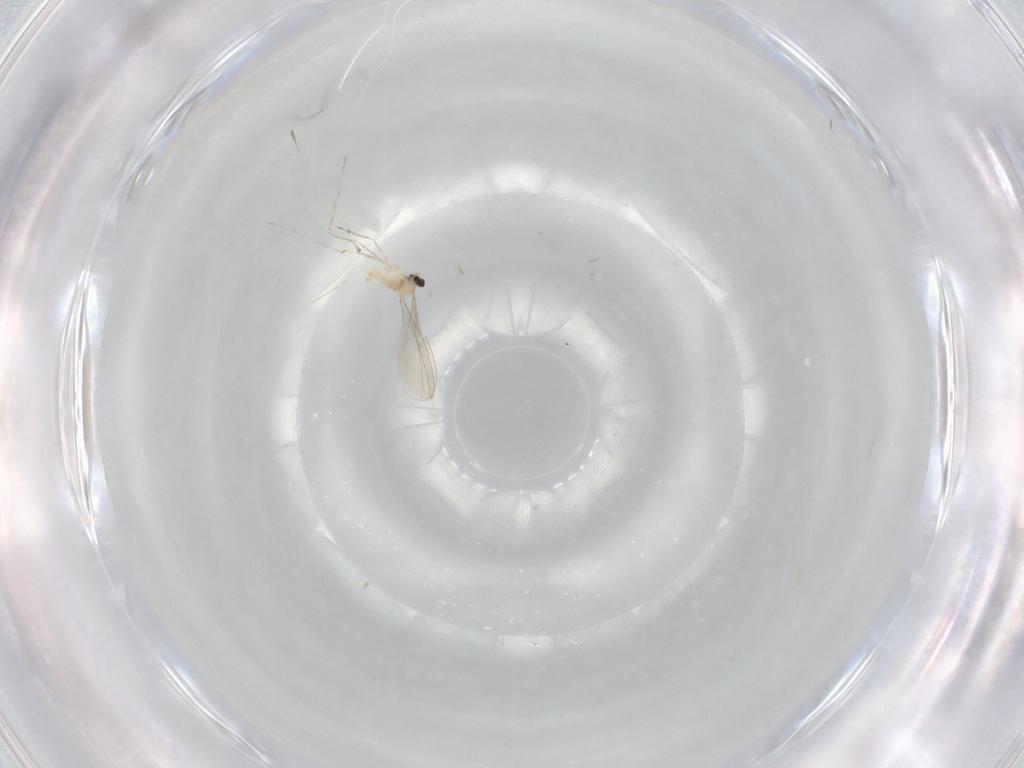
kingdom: Animalia
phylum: Arthropoda
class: Insecta
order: Diptera
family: Cecidomyiidae
